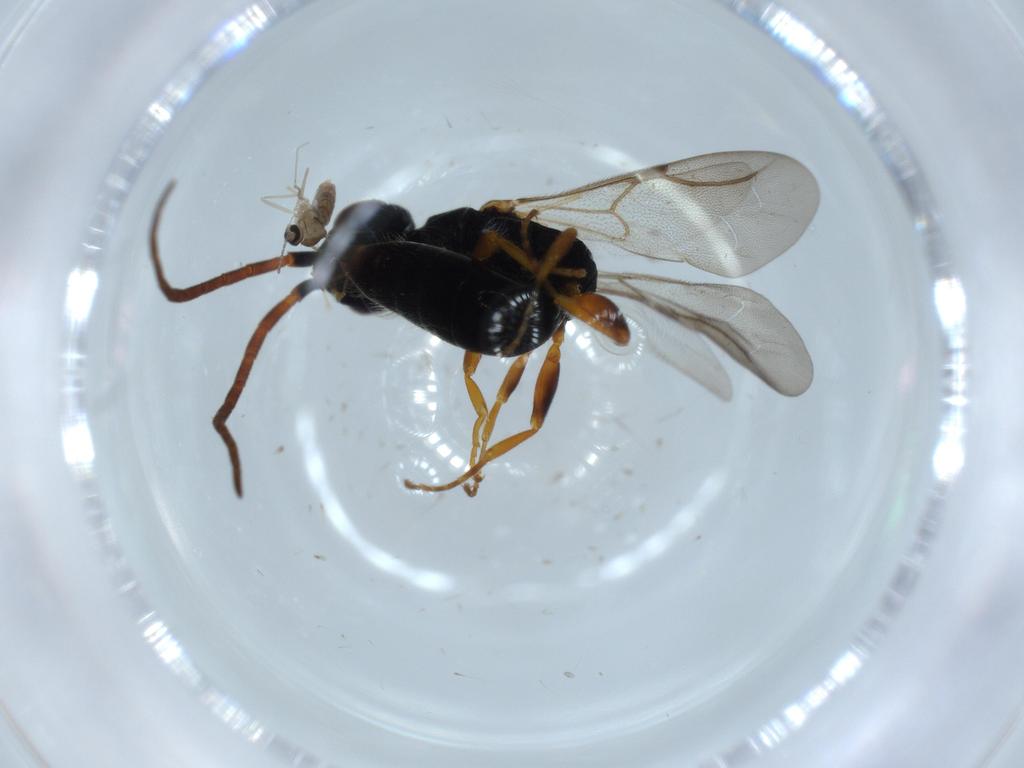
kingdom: Animalia
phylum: Arthropoda
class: Insecta
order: Diptera
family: Cecidomyiidae
